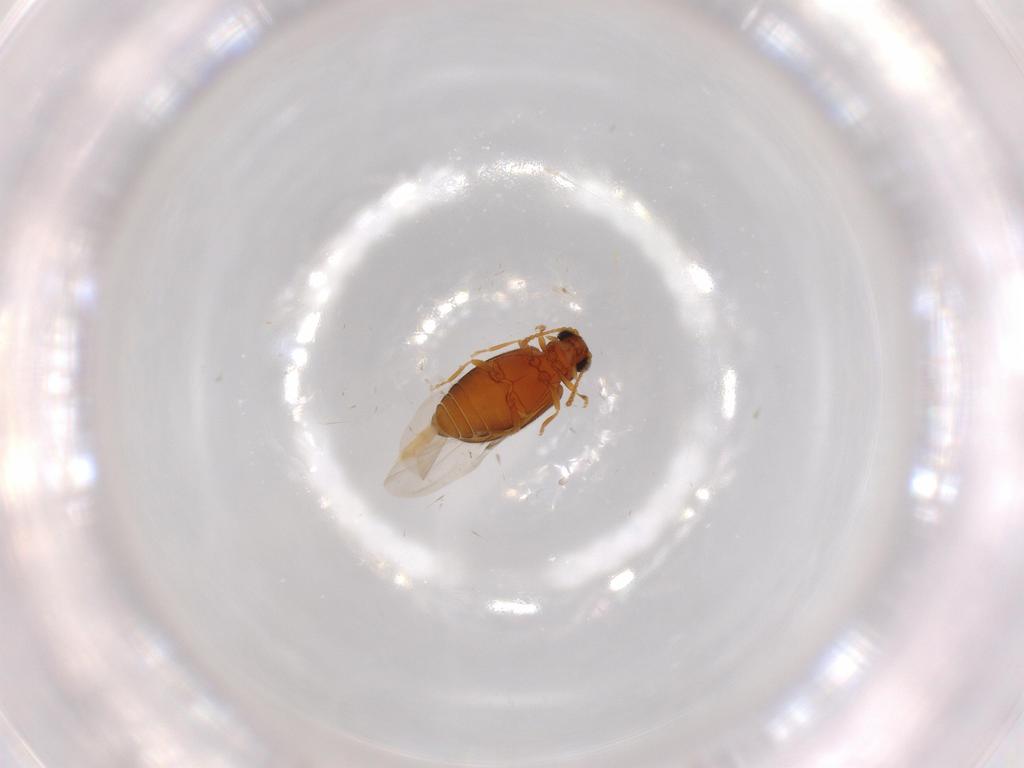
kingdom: Animalia
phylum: Arthropoda
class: Insecta
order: Coleoptera
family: Aderidae
